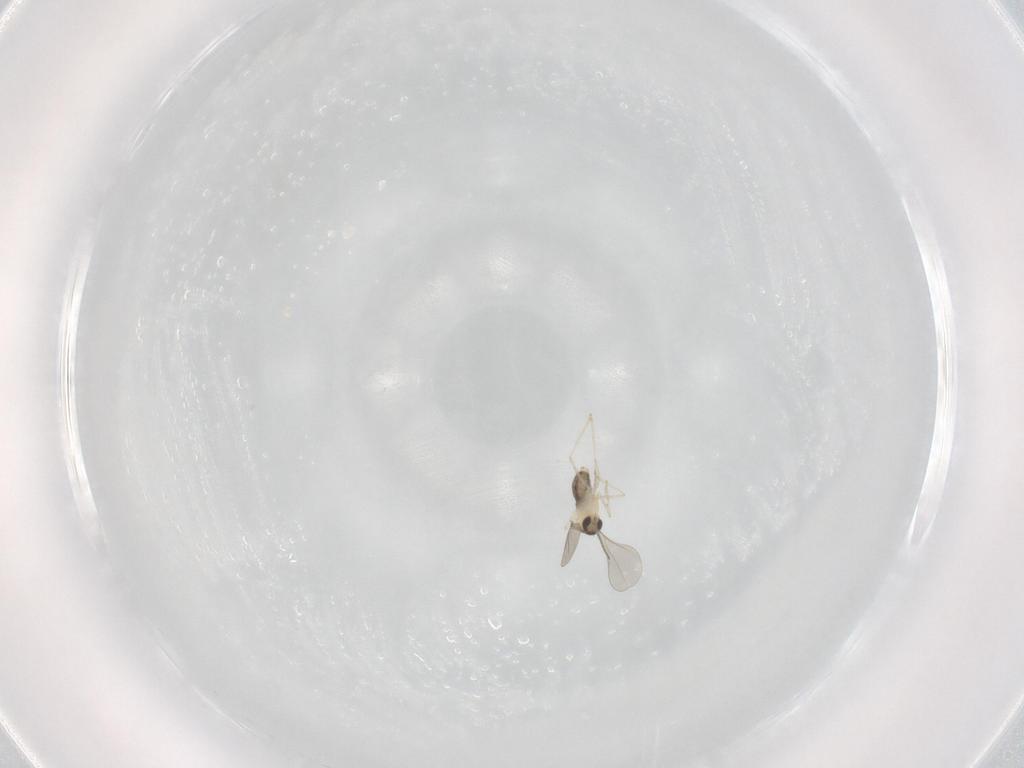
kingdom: Animalia
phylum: Arthropoda
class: Insecta
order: Diptera
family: Cecidomyiidae
